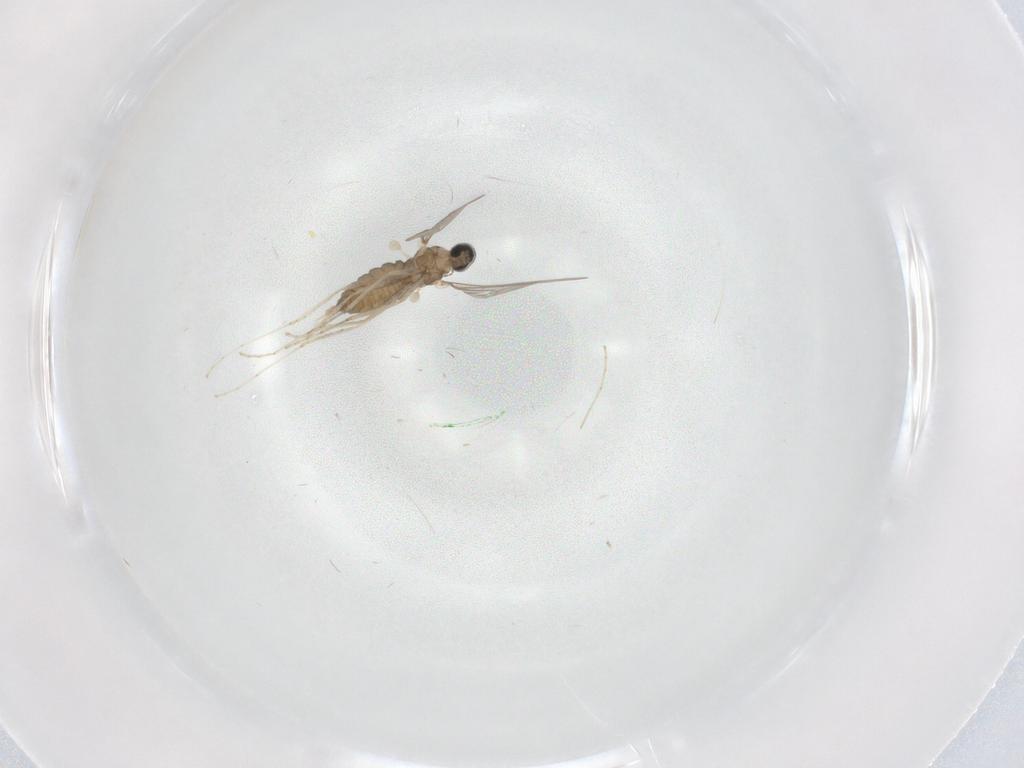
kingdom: Animalia
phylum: Arthropoda
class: Insecta
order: Diptera
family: Cecidomyiidae
